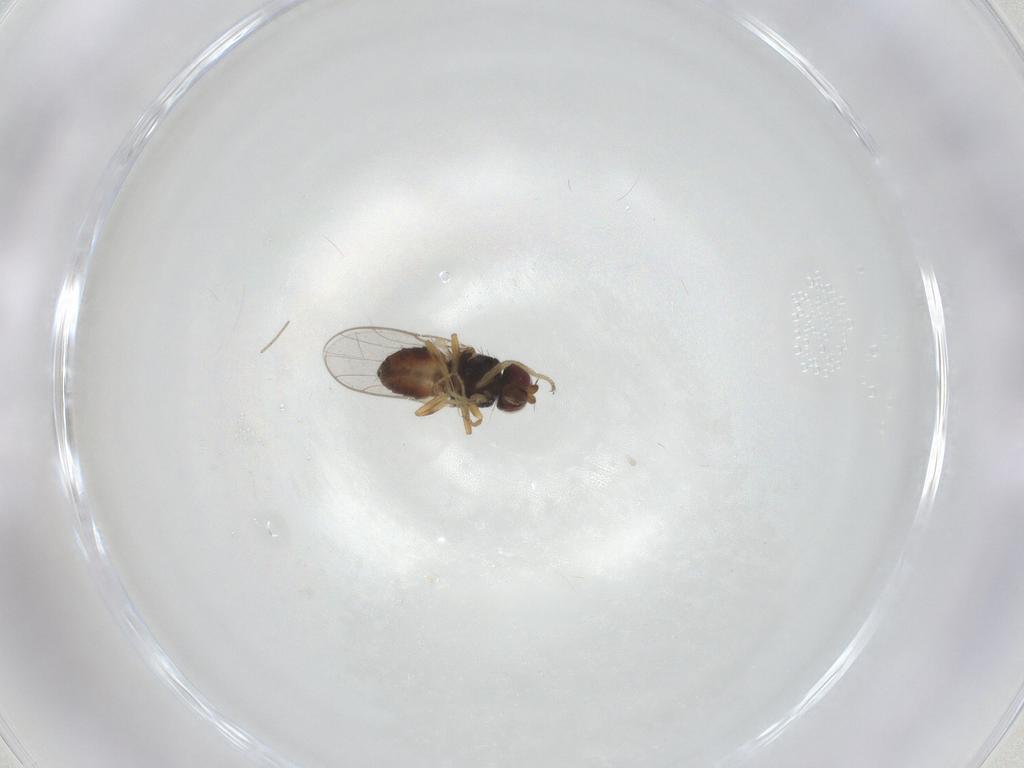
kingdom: Animalia
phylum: Arthropoda
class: Insecta
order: Diptera
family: Chloropidae
